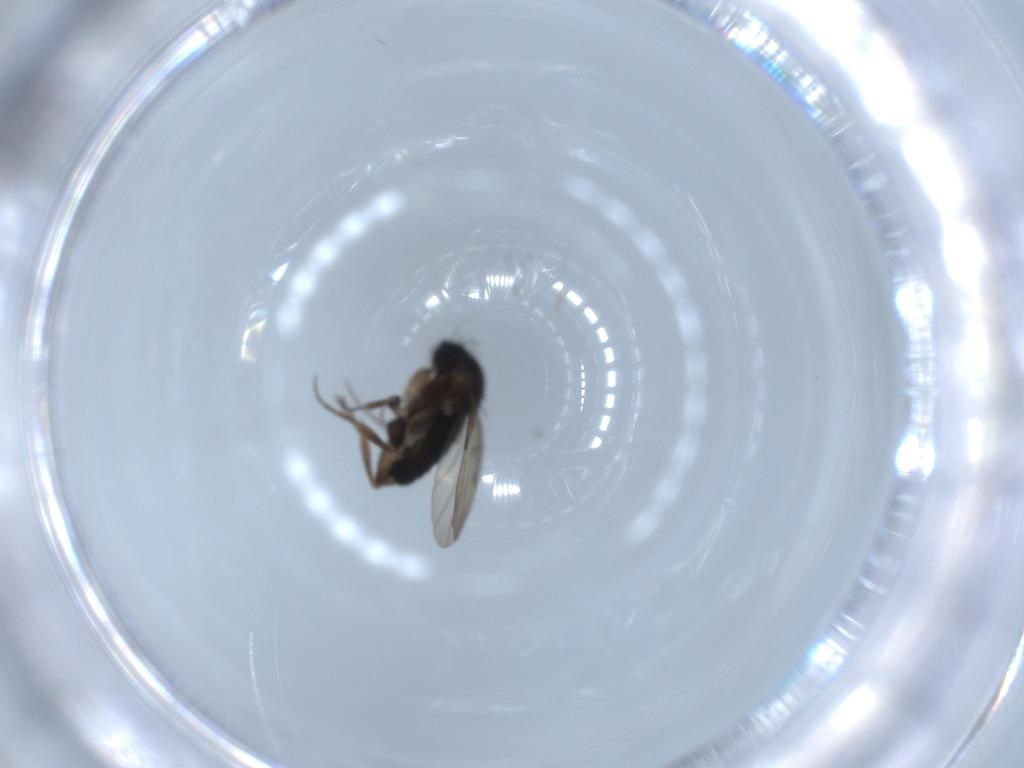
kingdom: Animalia
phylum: Arthropoda
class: Insecta
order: Diptera
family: Phoridae
